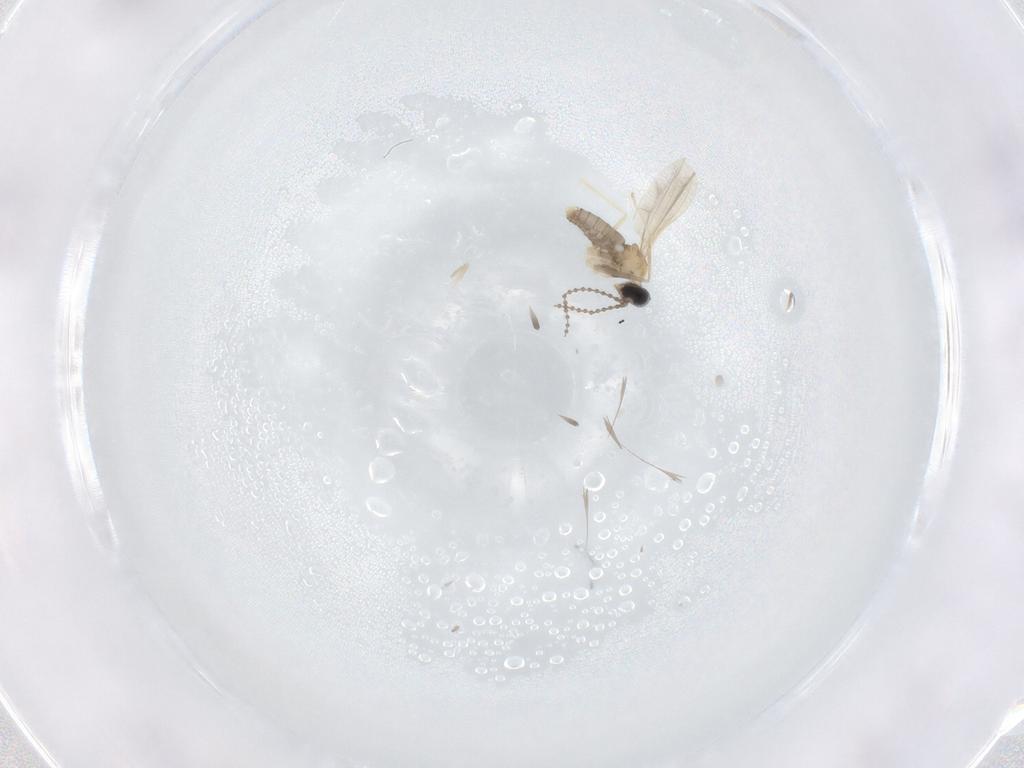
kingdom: Animalia
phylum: Arthropoda
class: Insecta
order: Diptera
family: Cecidomyiidae
